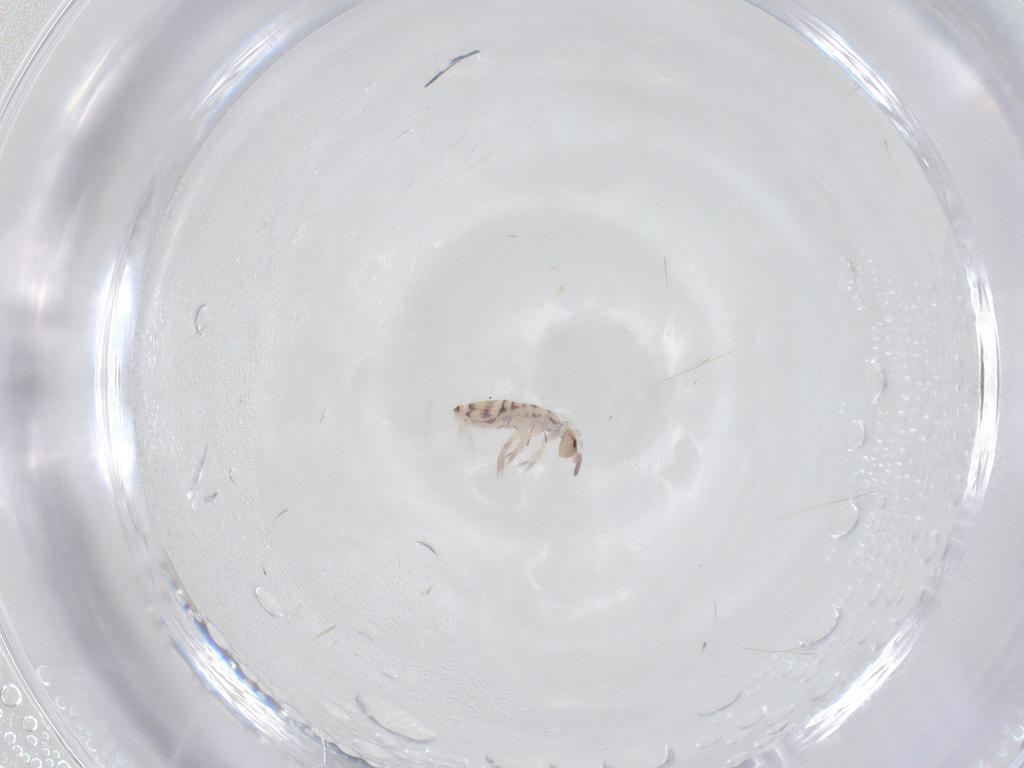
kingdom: Animalia
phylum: Arthropoda
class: Collembola
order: Entomobryomorpha
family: Entomobryidae
